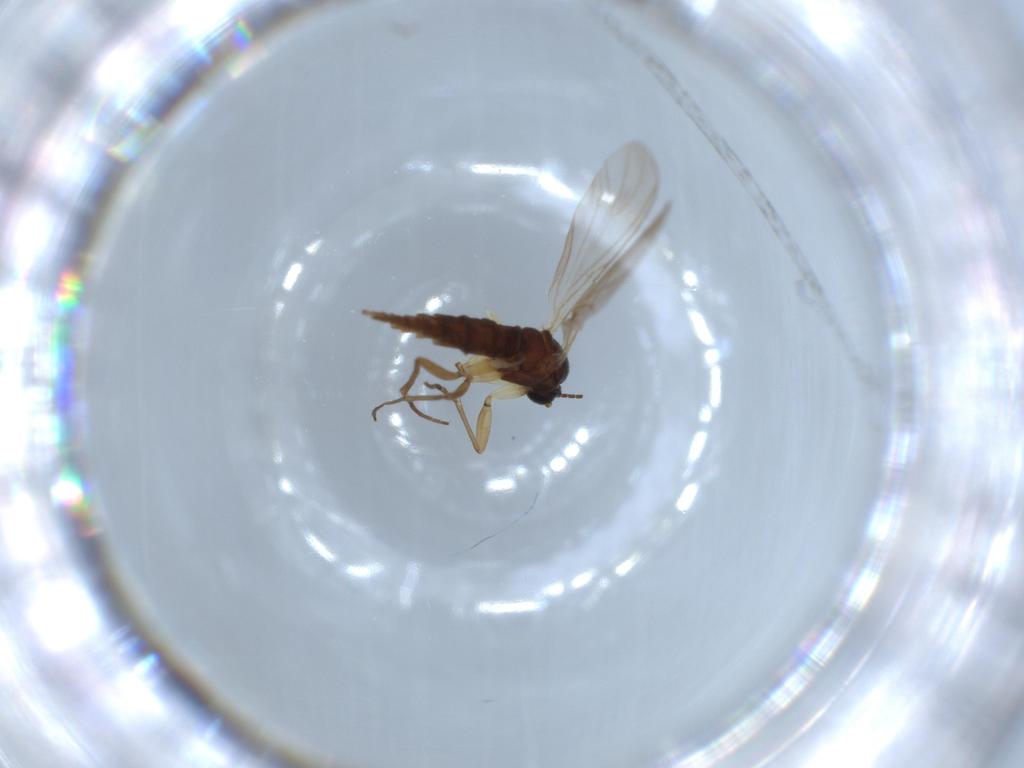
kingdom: Animalia
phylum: Arthropoda
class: Insecta
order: Diptera
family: Sciaridae
